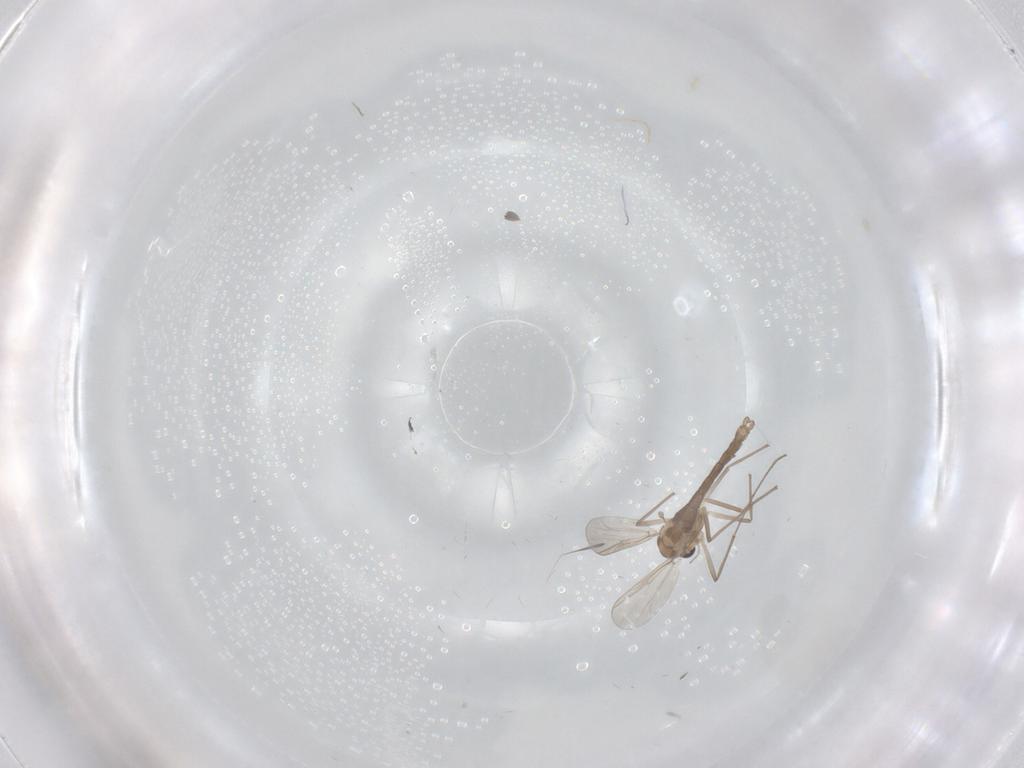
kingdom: Animalia
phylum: Arthropoda
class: Insecta
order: Diptera
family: Chironomidae
